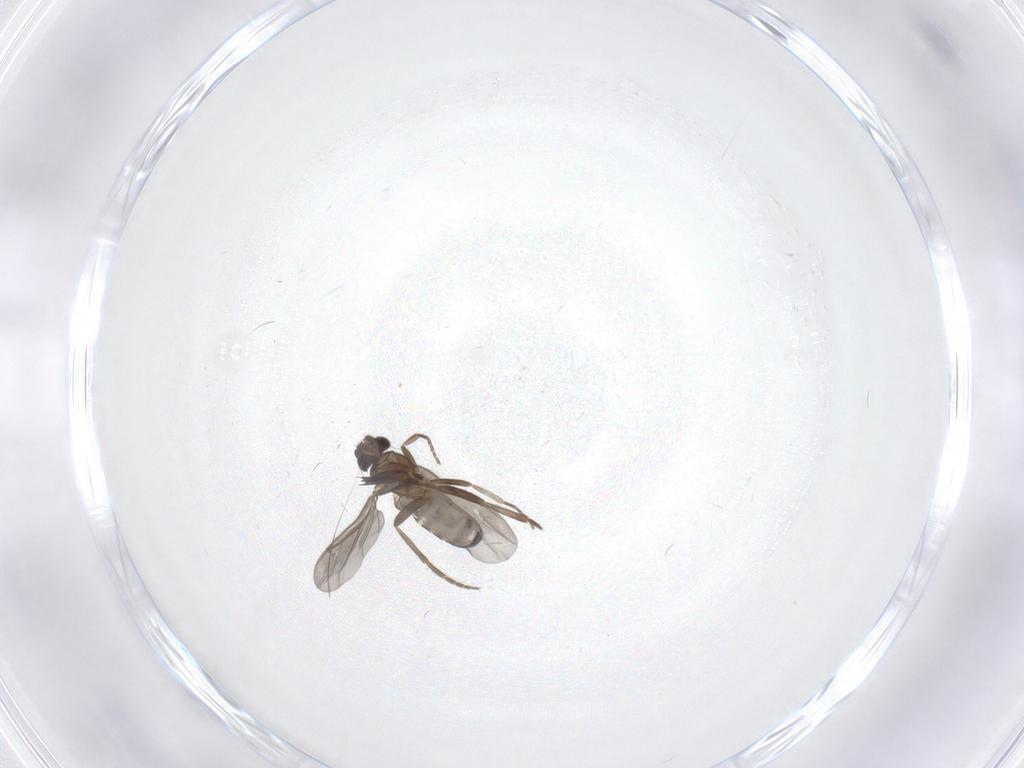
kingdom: Animalia
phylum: Arthropoda
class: Insecta
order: Diptera
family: Phoridae
